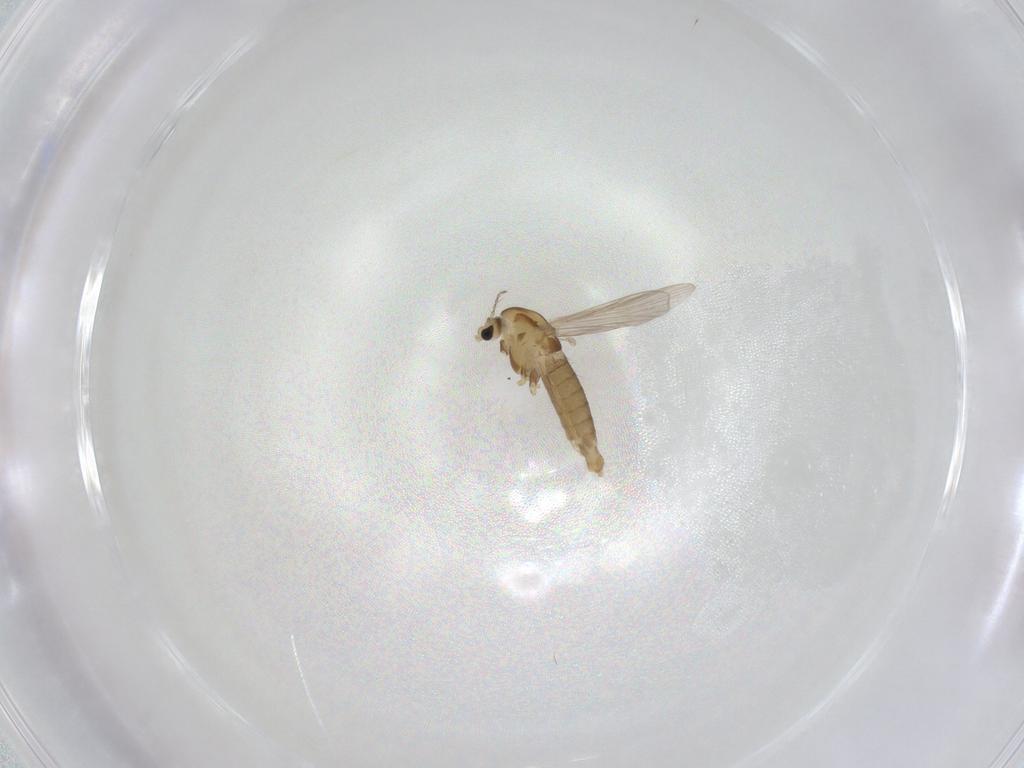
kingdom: Animalia
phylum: Arthropoda
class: Insecta
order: Diptera
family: Chironomidae
